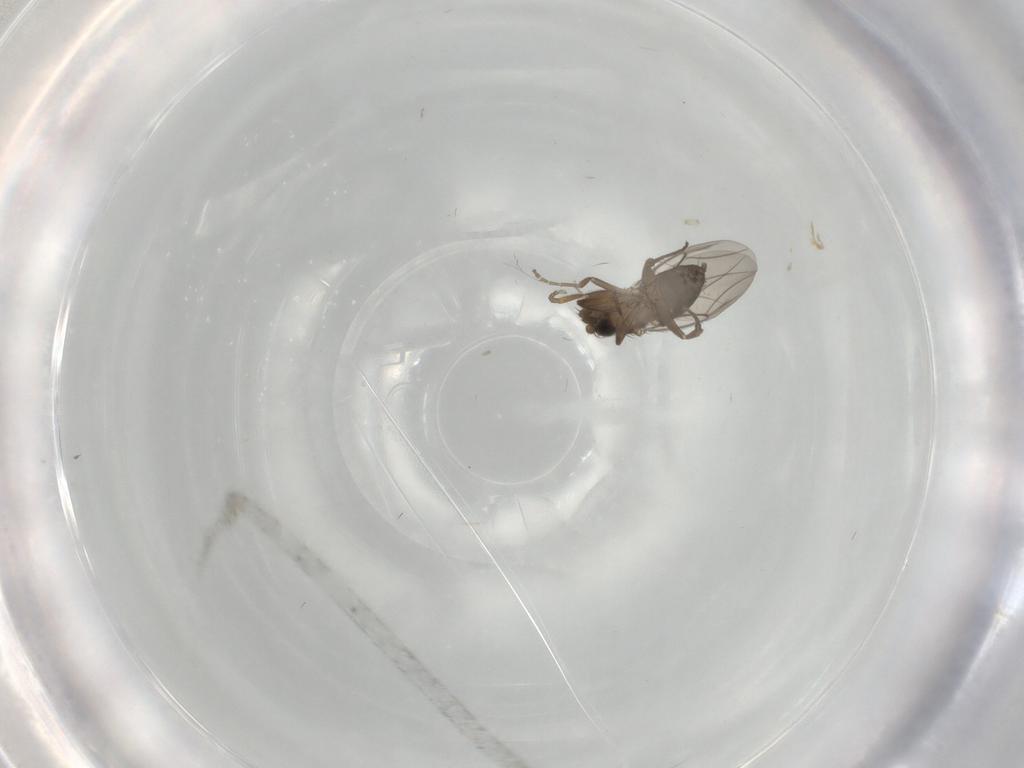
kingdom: Animalia
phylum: Arthropoda
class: Insecta
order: Diptera
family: Phoridae
